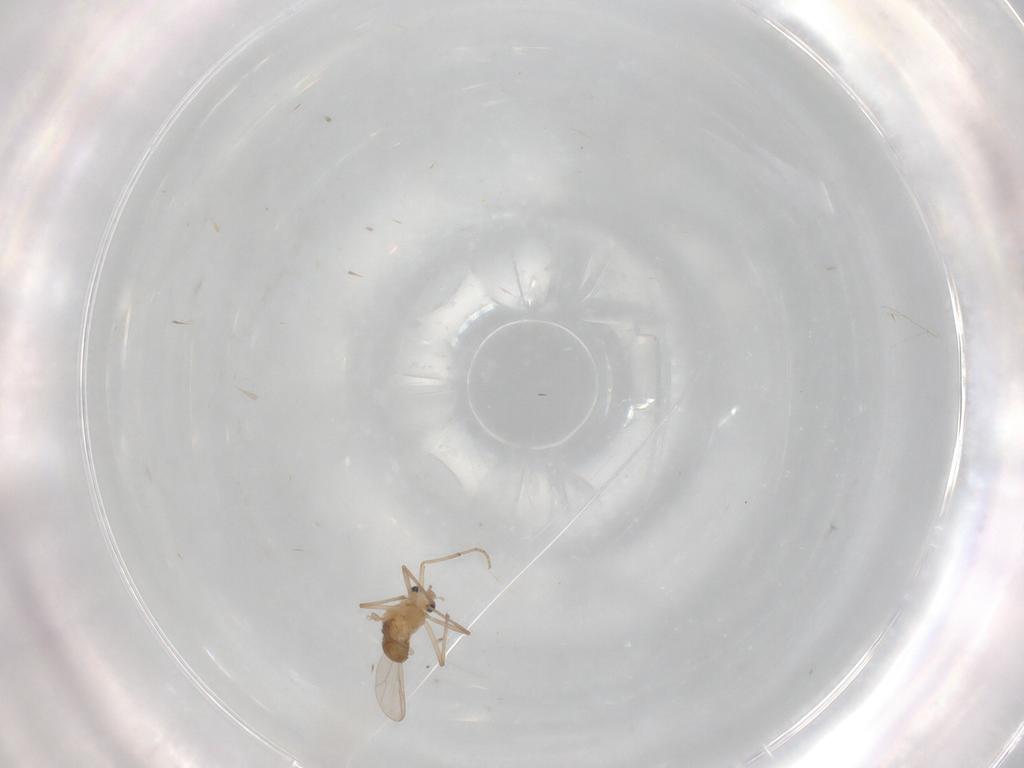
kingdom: Animalia
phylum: Arthropoda
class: Insecta
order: Diptera
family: Chironomidae
